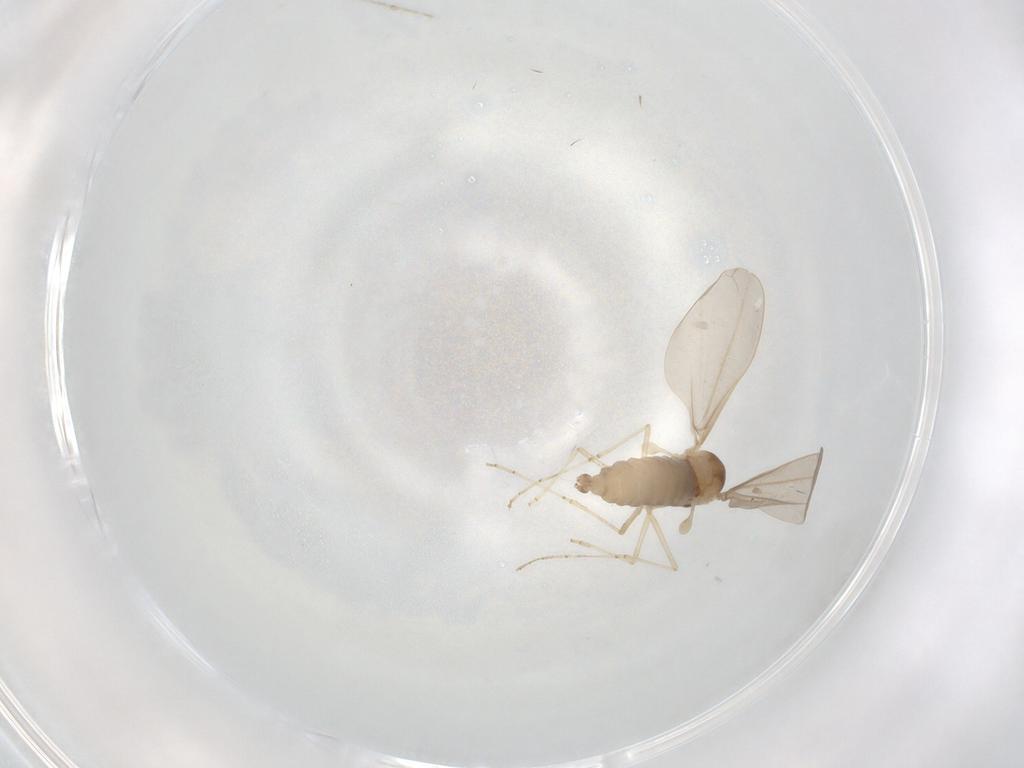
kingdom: Animalia
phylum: Arthropoda
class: Insecta
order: Diptera
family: Cecidomyiidae
